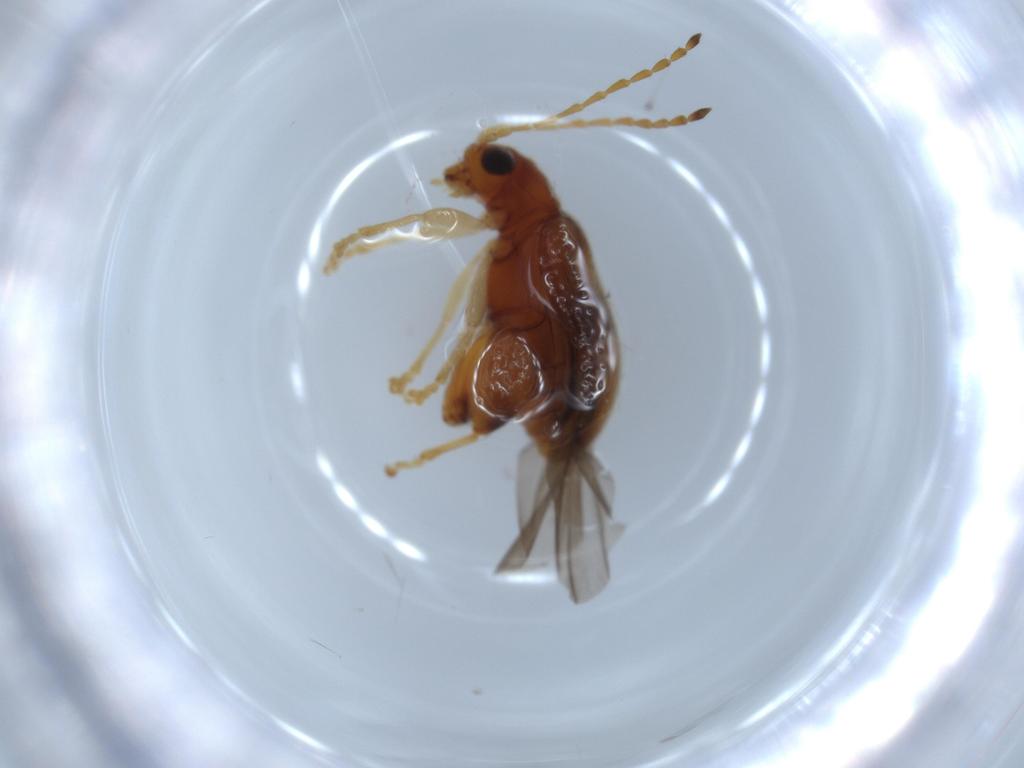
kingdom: Animalia
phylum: Arthropoda
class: Insecta
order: Coleoptera
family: Chrysomelidae
